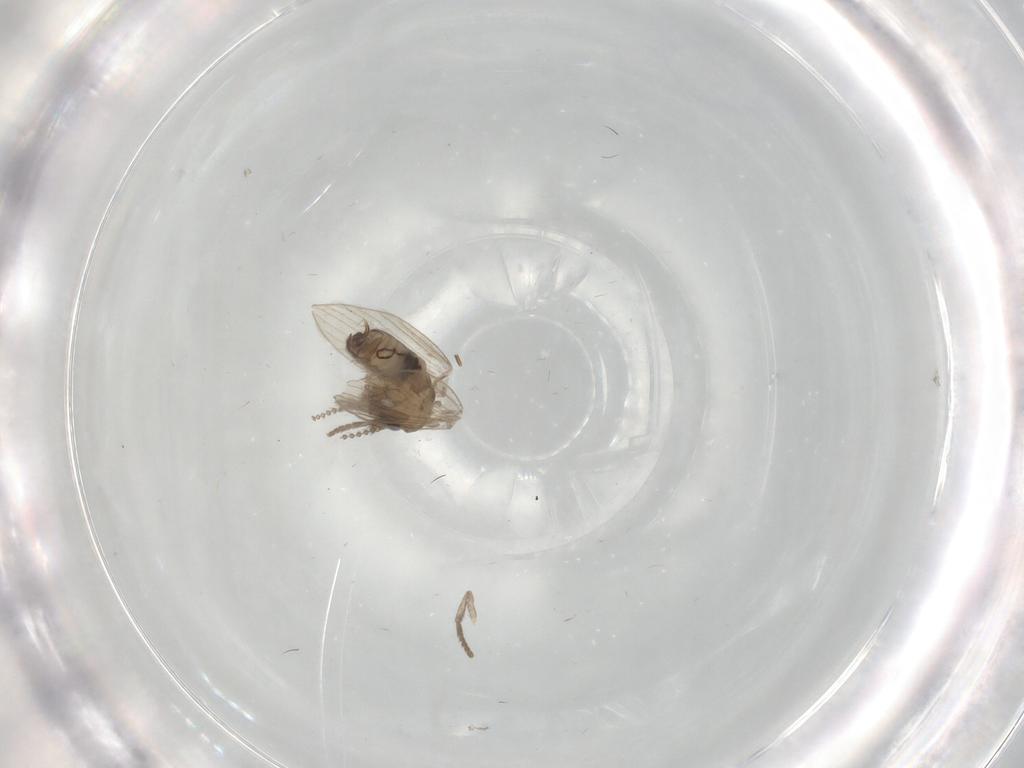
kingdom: Animalia
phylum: Arthropoda
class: Insecta
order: Diptera
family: Psychodidae
